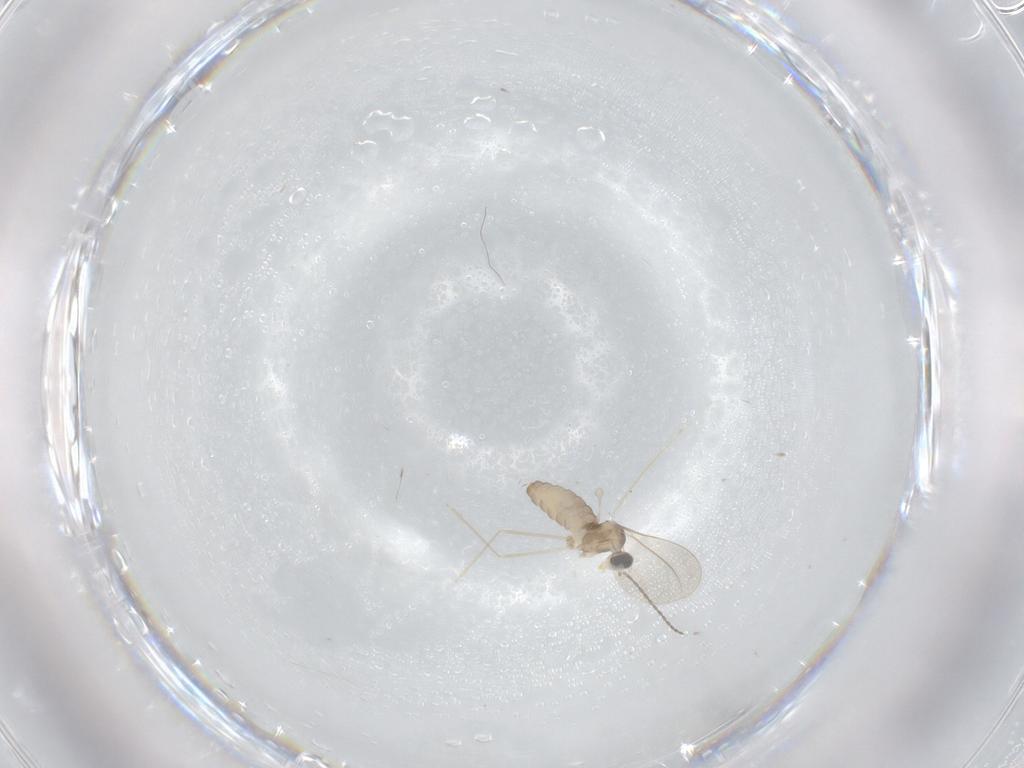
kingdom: Animalia
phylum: Arthropoda
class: Insecta
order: Diptera
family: Cecidomyiidae
